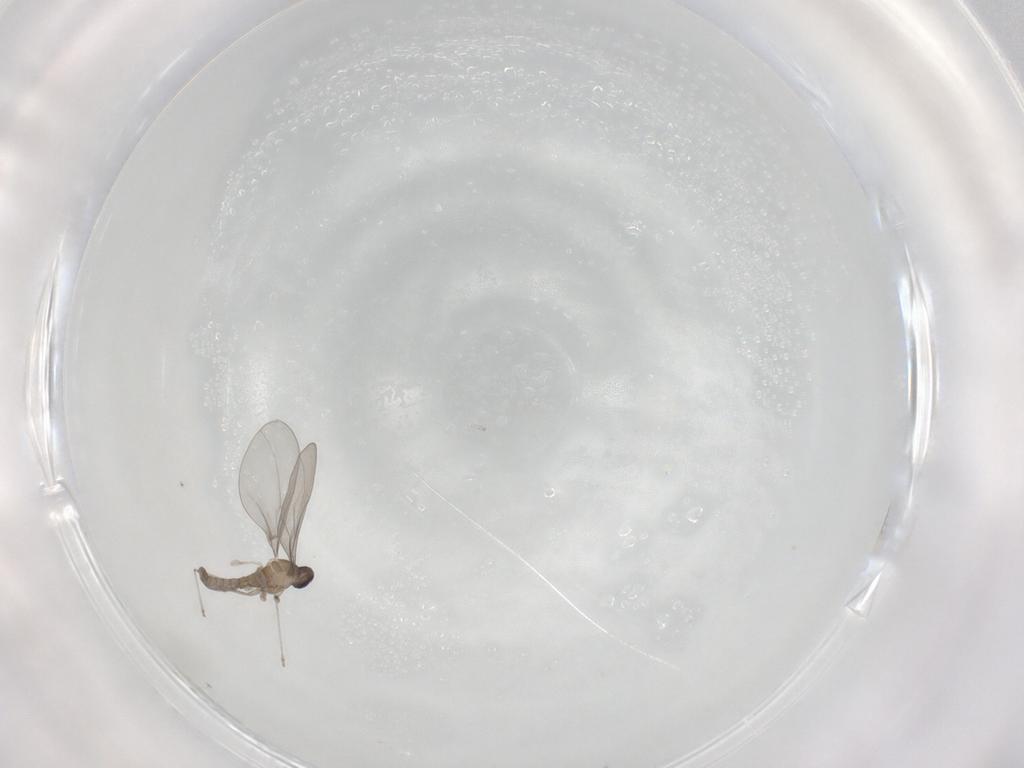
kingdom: Animalia
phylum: Arthropoda
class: Insecta
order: Diptera
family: Cecidomyiidae
